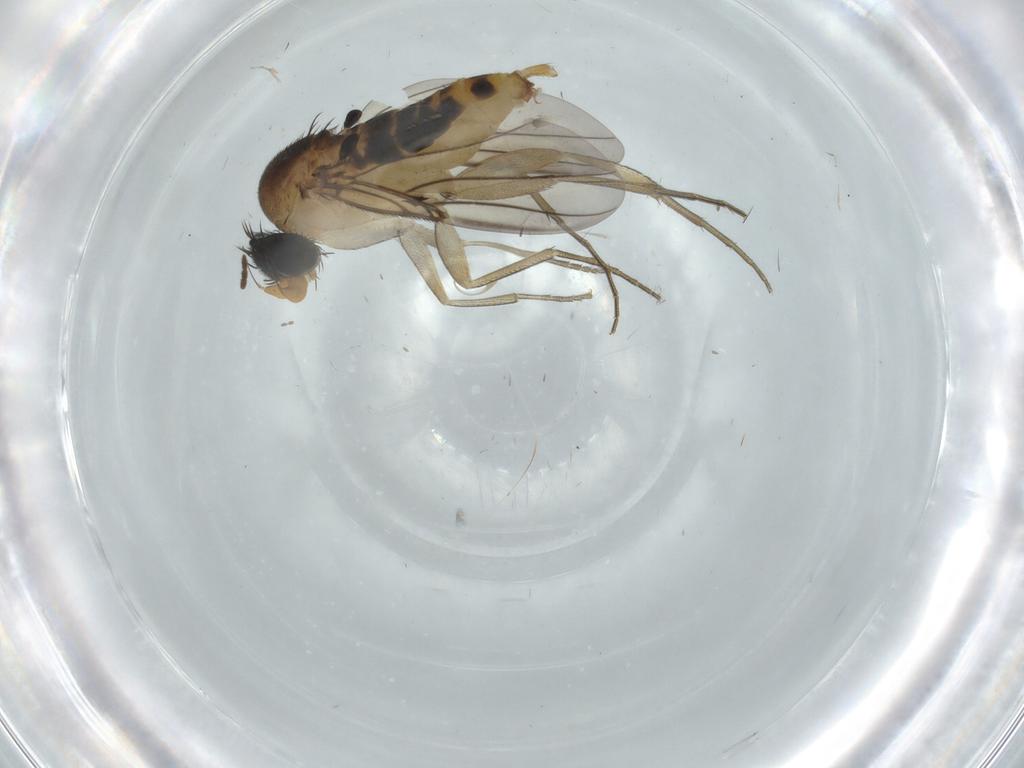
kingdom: Animalia
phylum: Arthropoda
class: Insecta
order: Diptera
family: Phoridae
